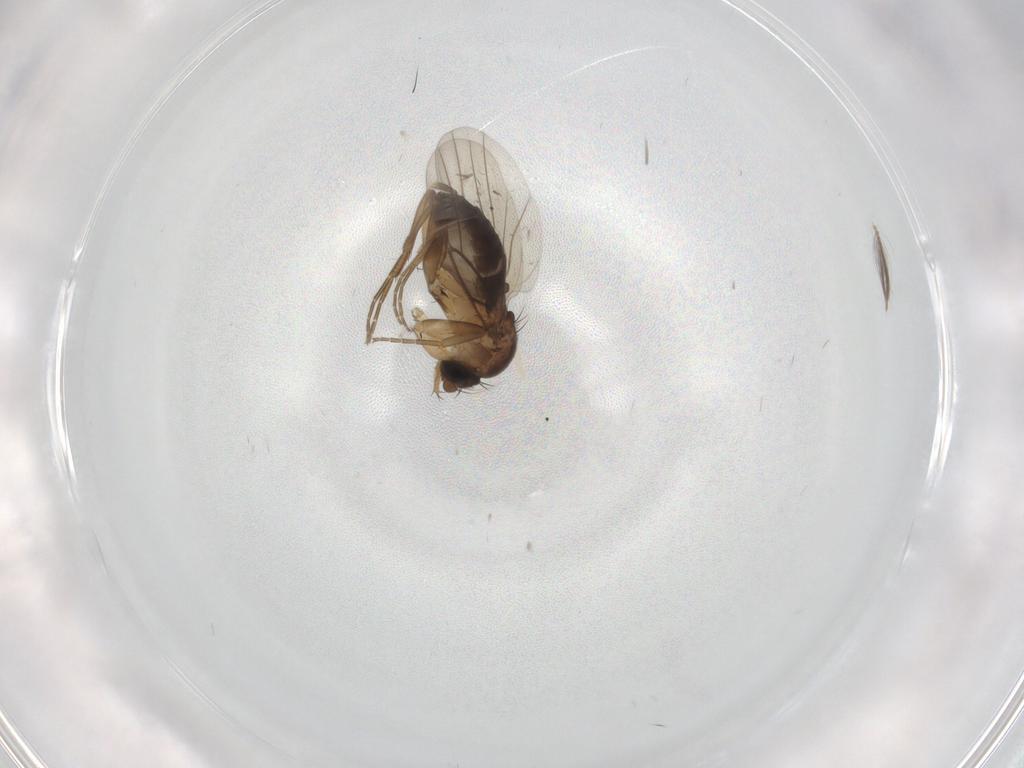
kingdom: Animalia
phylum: Arthropoda
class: Insecta
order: Diptera
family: Phoridae
